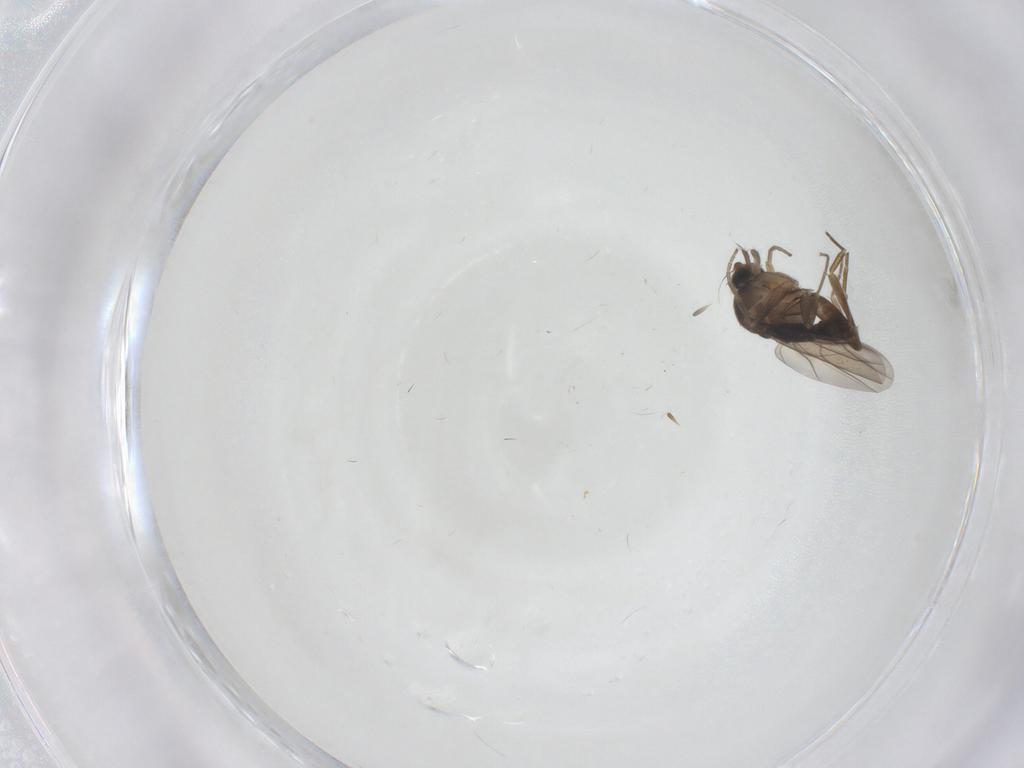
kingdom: Animalia
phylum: Arthropoda
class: Insecta
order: Diptera
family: Phoridae
